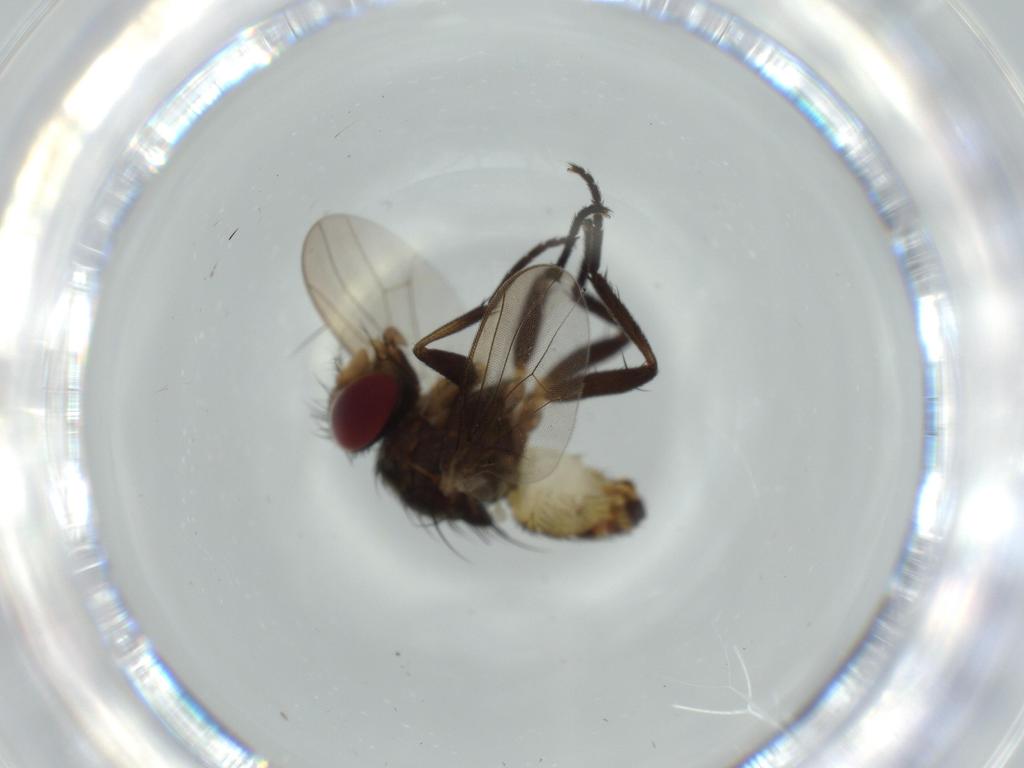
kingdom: Animalia
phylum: Arthropoda
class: Insecta
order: Diptera
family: Anthomyiidae
